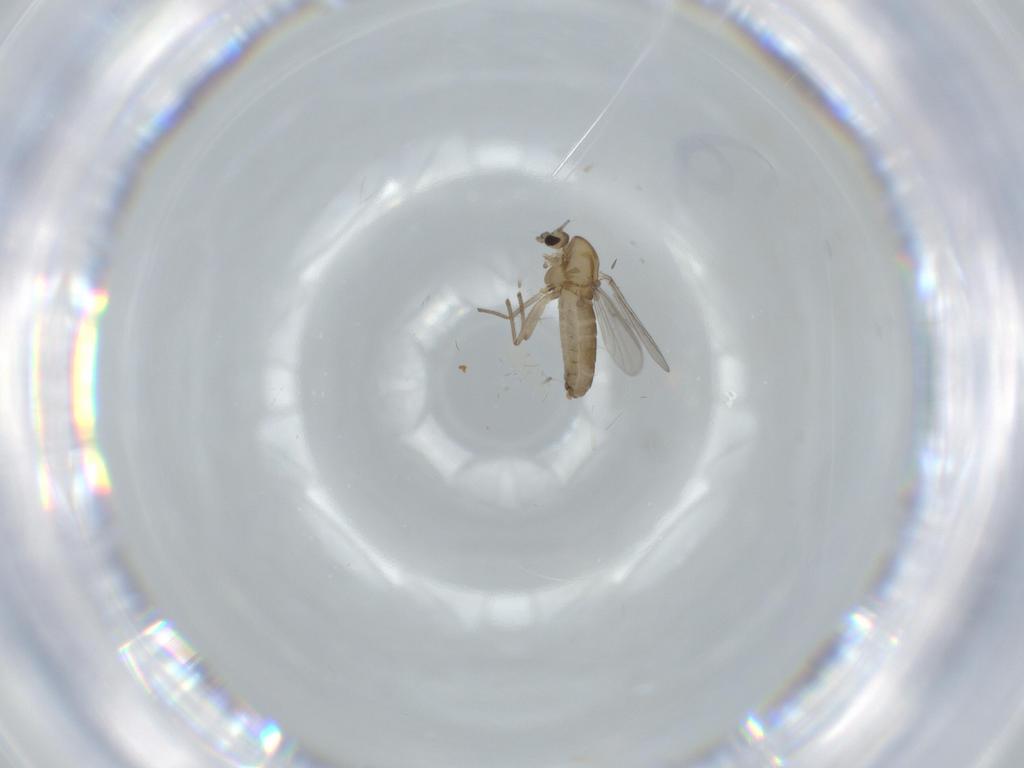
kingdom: Animalia
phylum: Arthropoda
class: Insecta
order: Diptera
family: Chironomidae
